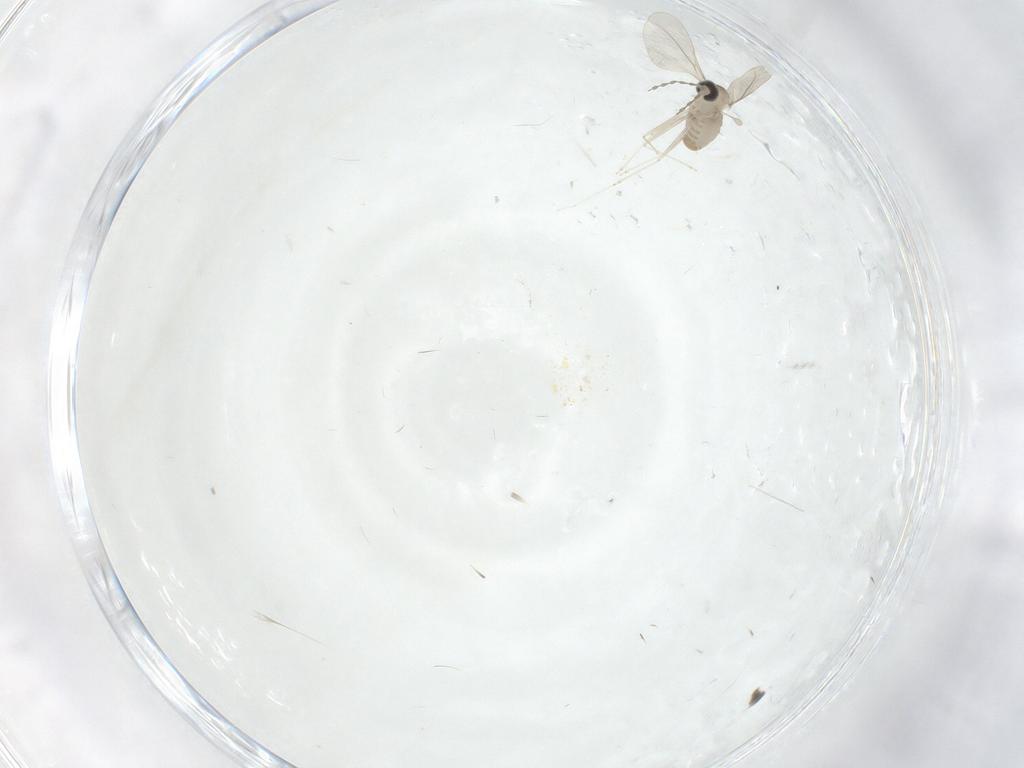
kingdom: Animalia
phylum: Arthropoda
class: Insecta
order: Diptera
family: Cecidomyiidae
